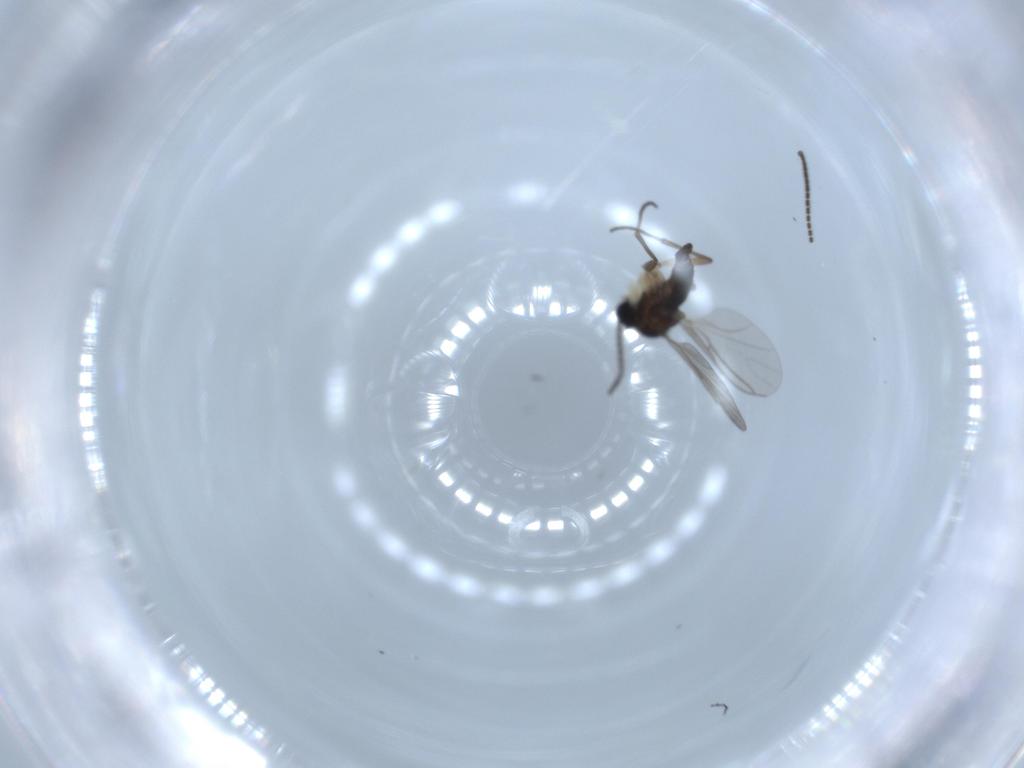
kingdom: Animalia
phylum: Arthropoda
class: Insecta
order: Diptera
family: Sciaridae
